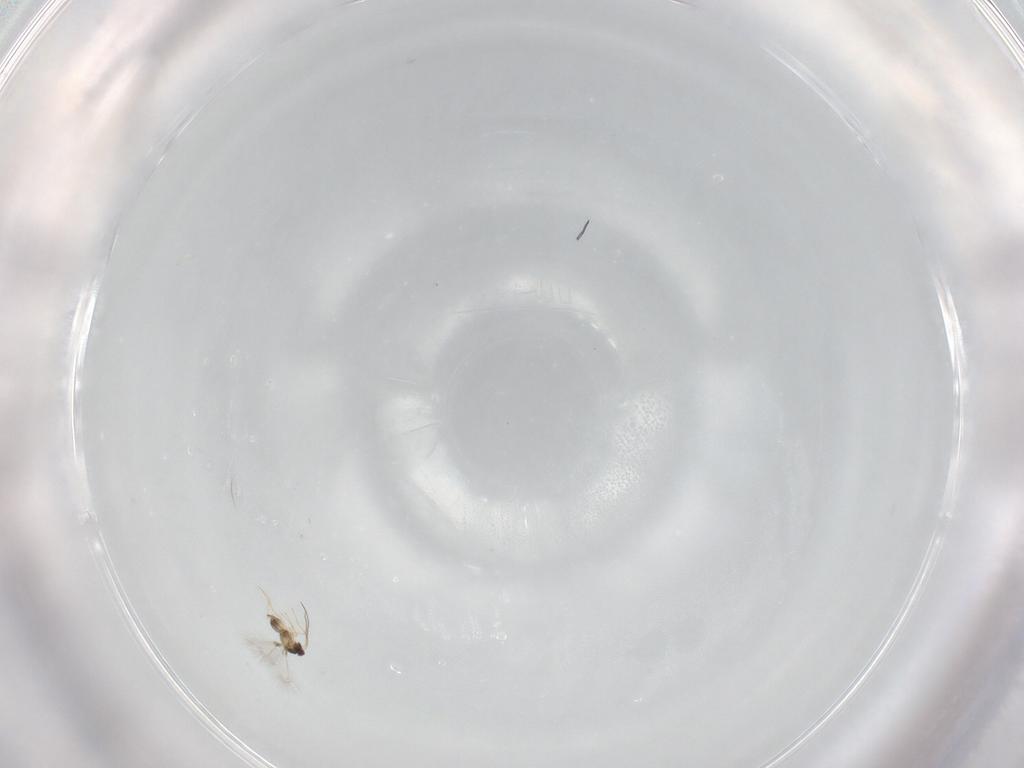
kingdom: Animalia
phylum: Arthropoda
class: Insecta
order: Hymenoptera
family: Mymaridae
